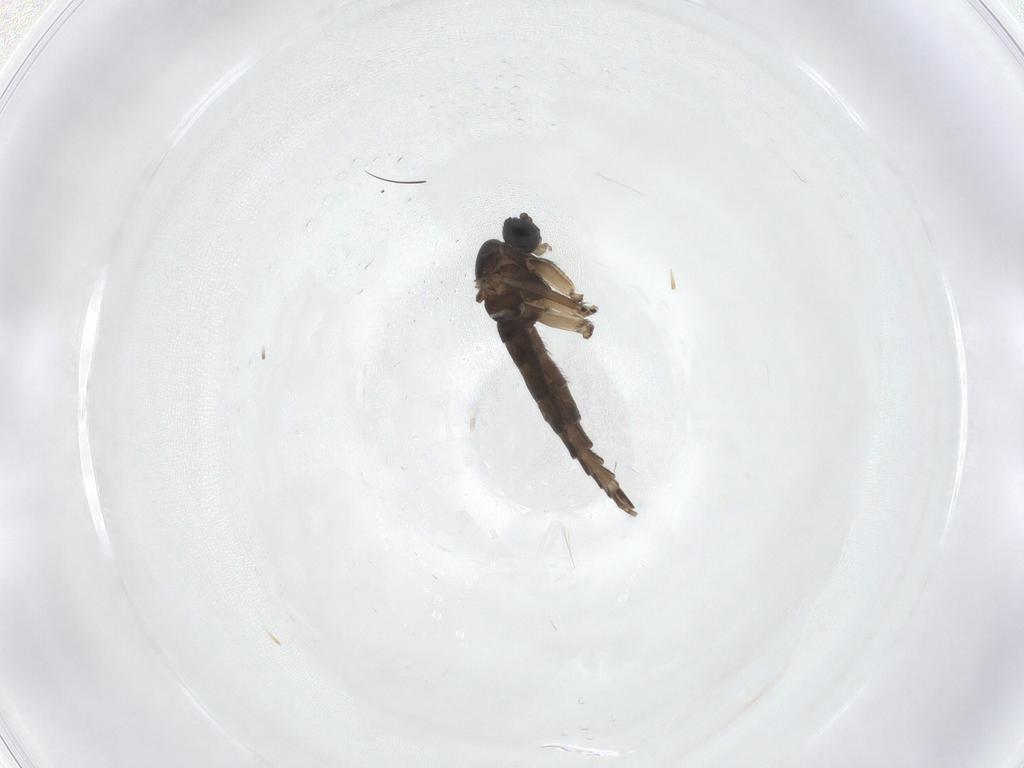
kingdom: Animalia
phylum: Arthropoda
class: Insecta
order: Diptera
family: Sciaridae
